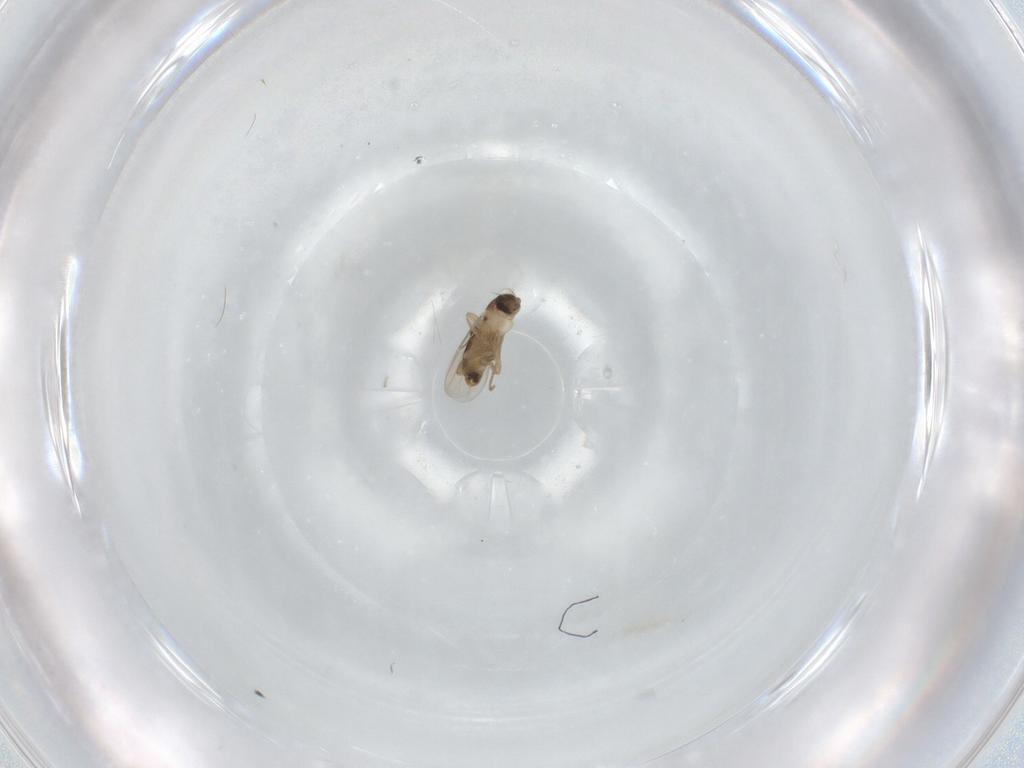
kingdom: Animalia
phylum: Arthropoda
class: Insecta
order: Diptera
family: Phoridae
